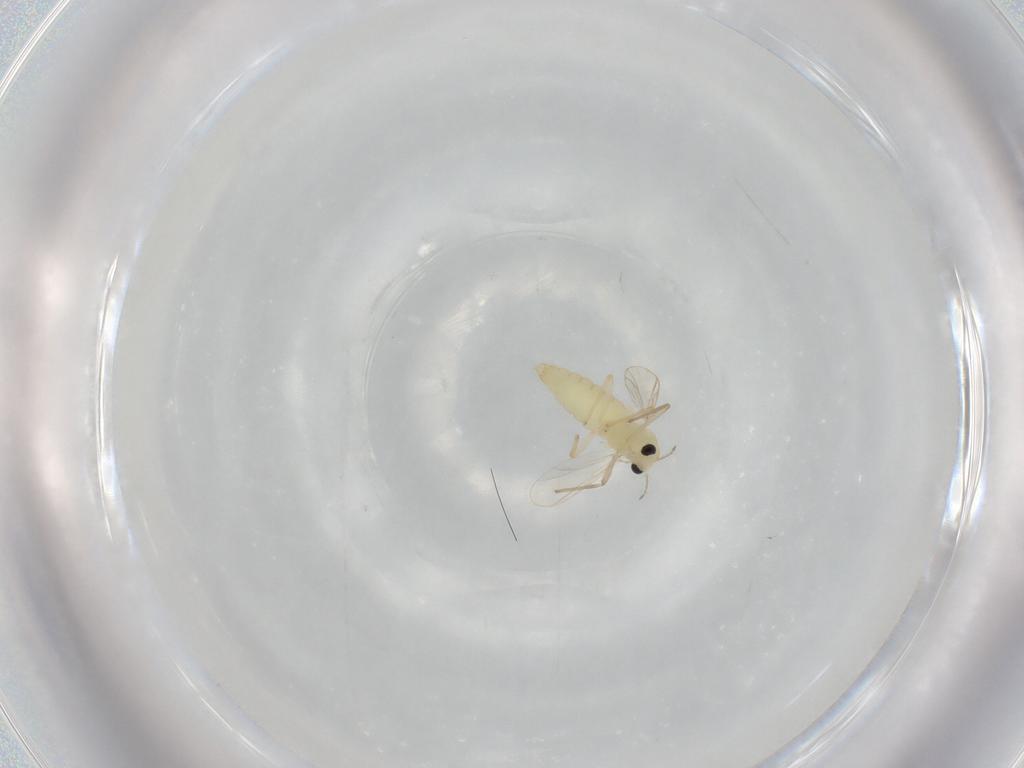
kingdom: Animalia
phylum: Arthropoda
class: Insecta
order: Diptera
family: Chironomidae
